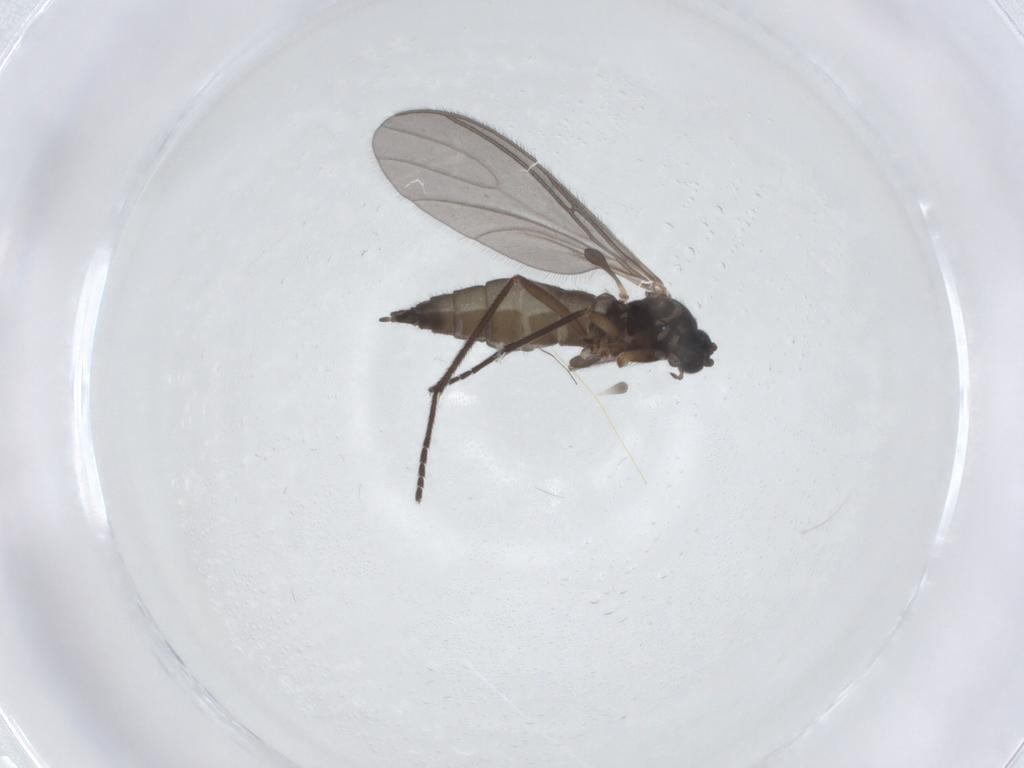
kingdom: Animalia
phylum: Arthropoda
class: Insecta
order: Diptera
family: Sciaridae
